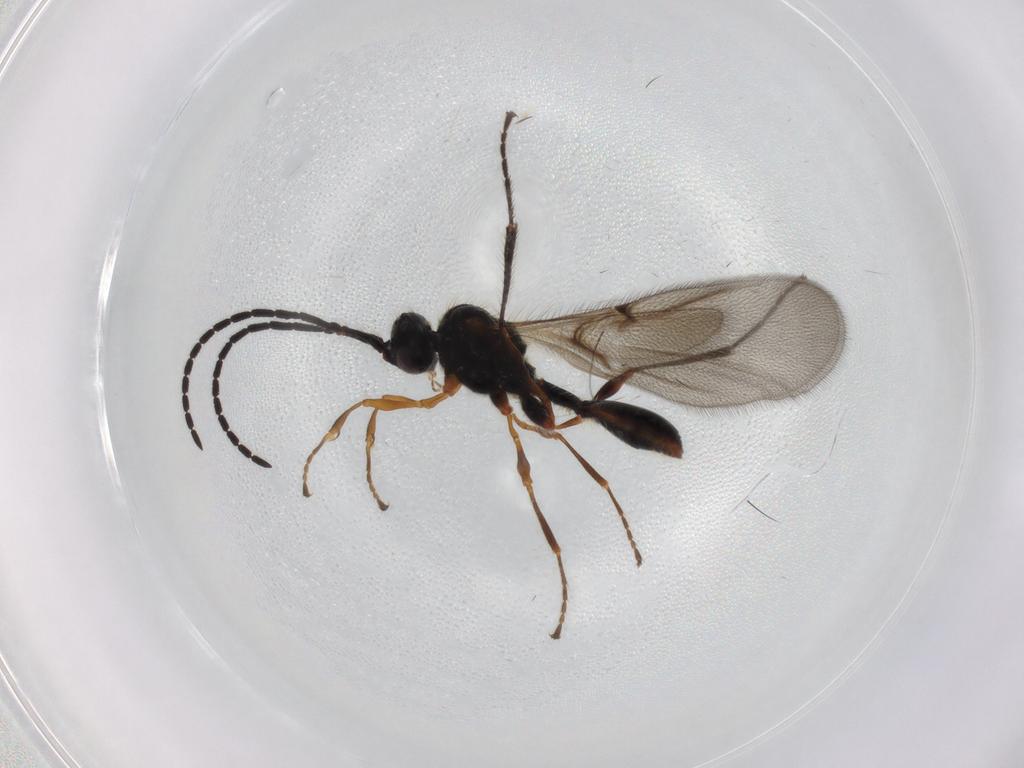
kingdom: Animalia
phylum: Arthropoda
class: Insecta
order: Hymenoptera
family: Diapriidae
